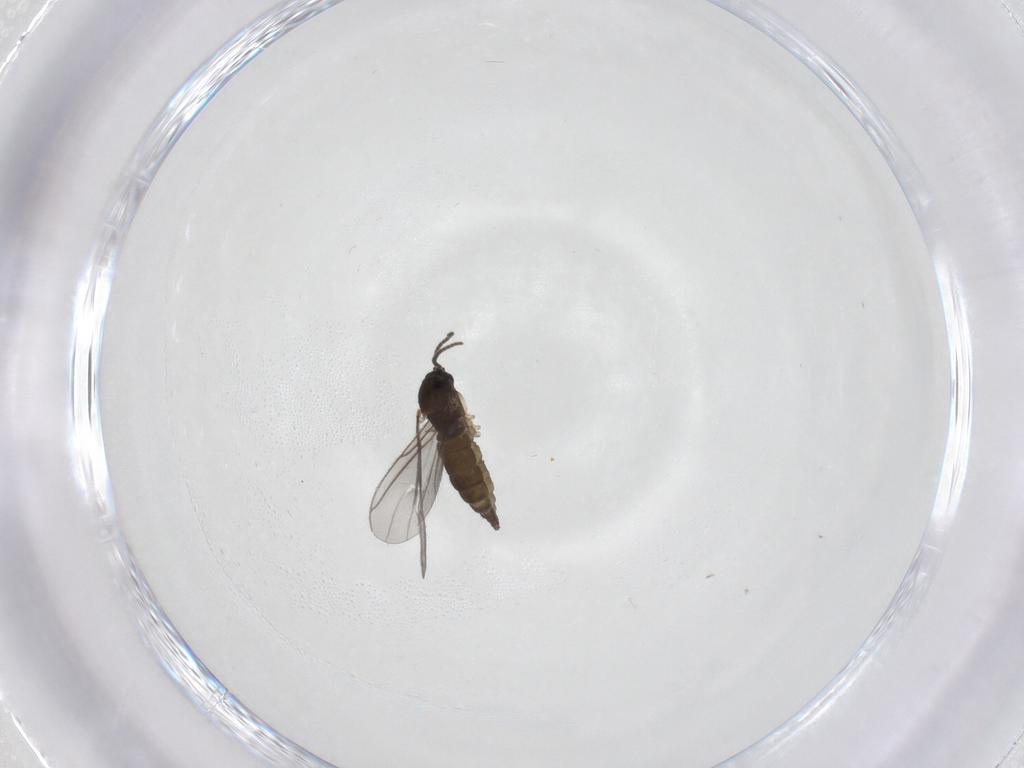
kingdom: Animalia
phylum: Arthropoda
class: Insecta
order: Diptera
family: Sciaridae
